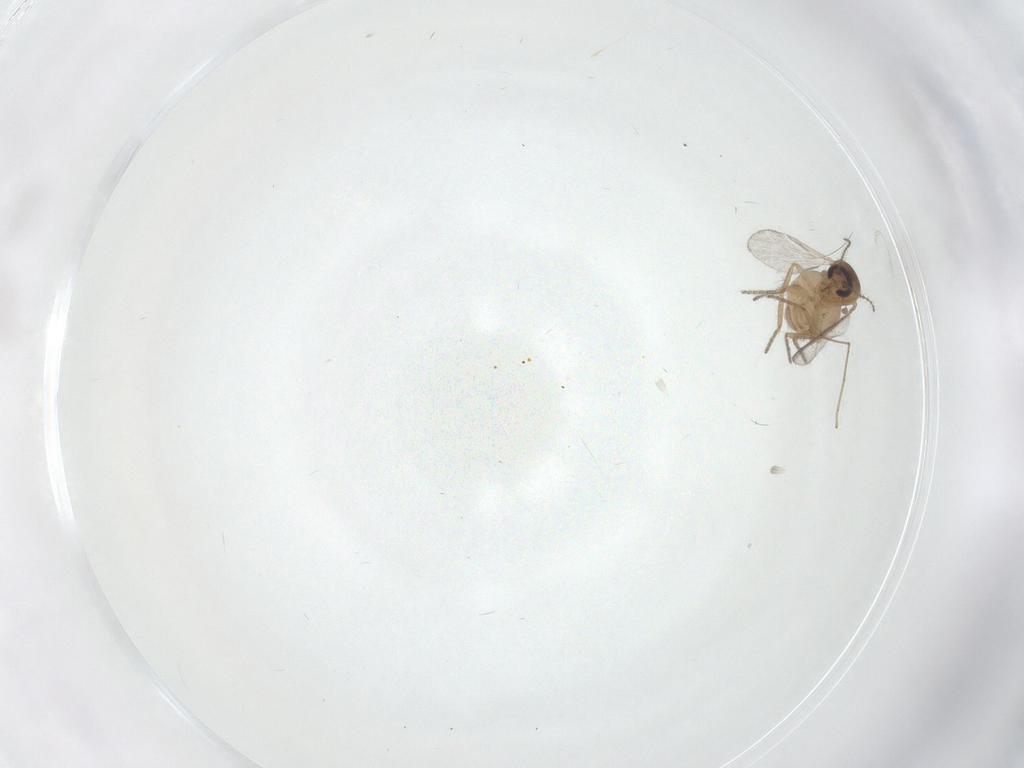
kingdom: Animalia
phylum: Arthropoda
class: Insecta
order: Diptera
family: Ceratopogonidae
